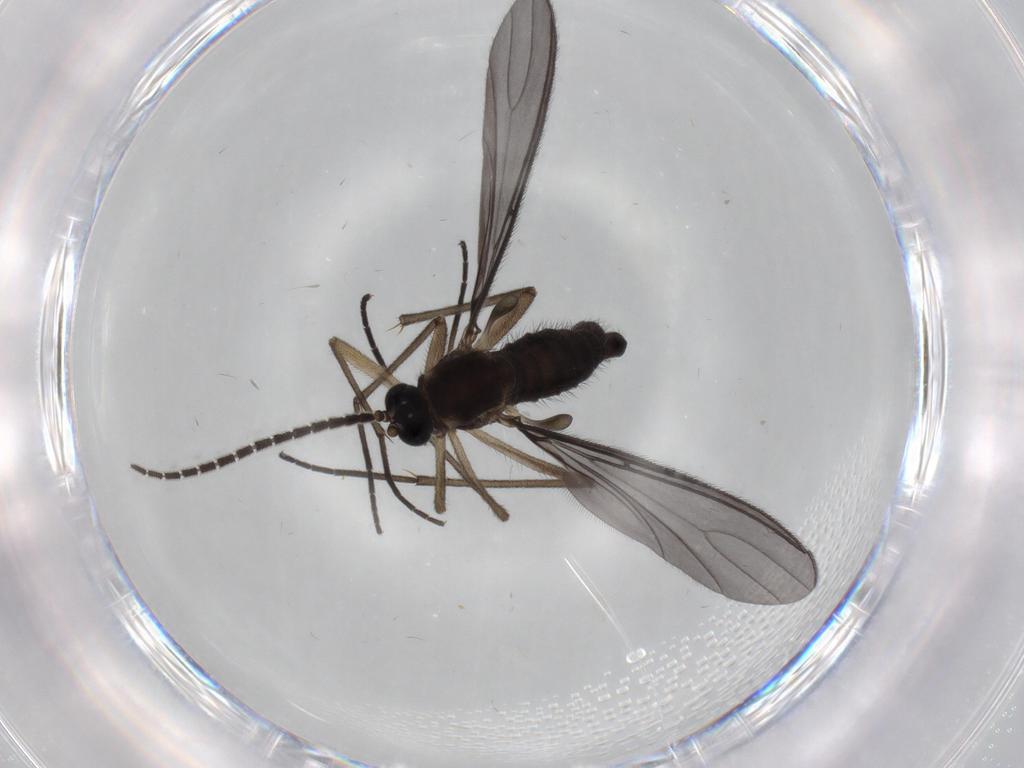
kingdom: Animalia
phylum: Arthropoda
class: Insecta
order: Diptera
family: Sciaridae
